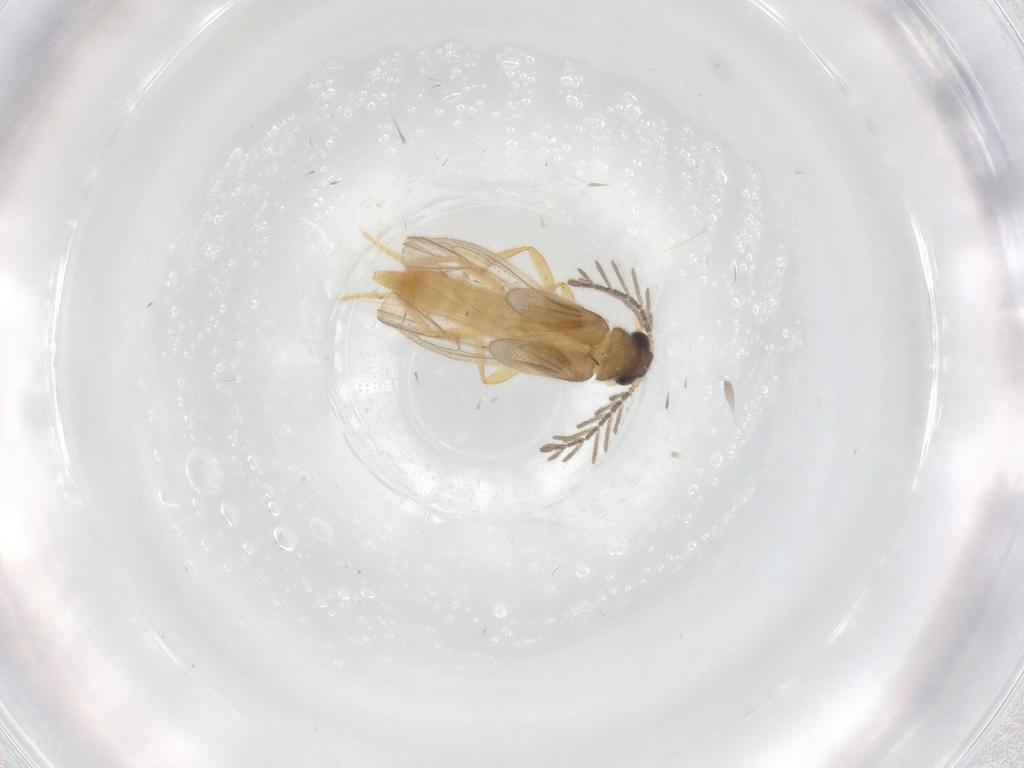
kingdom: Animalia
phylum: Arthropoda
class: Insecta
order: Coleoptera
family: Chrysomelidae
